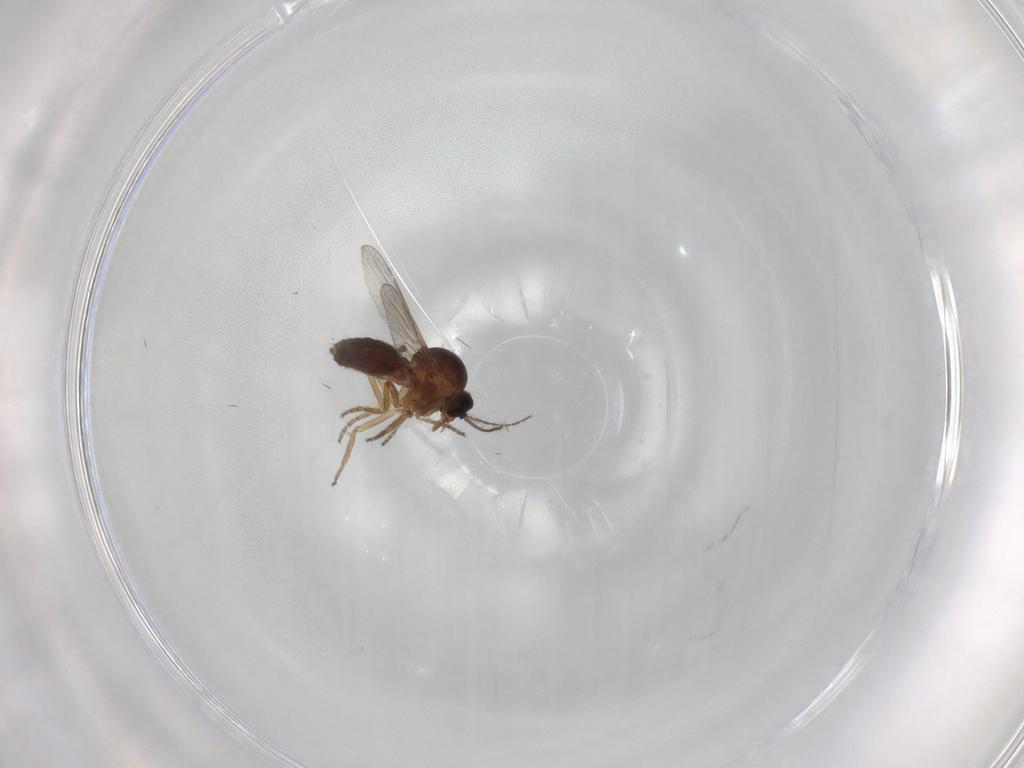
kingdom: Animalia
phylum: Arthropoda
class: Insecta
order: Diptera
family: Ceratopogonidae
